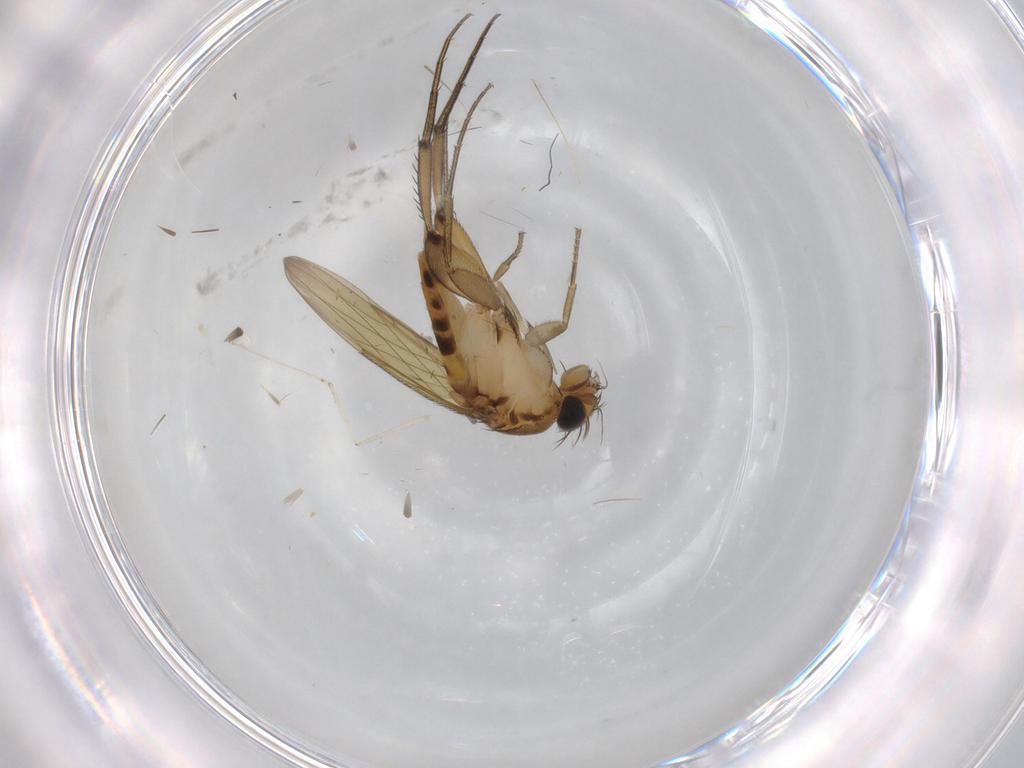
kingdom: Animalia
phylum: Arthropoda
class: Insecta
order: Diptera
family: Phoridae
